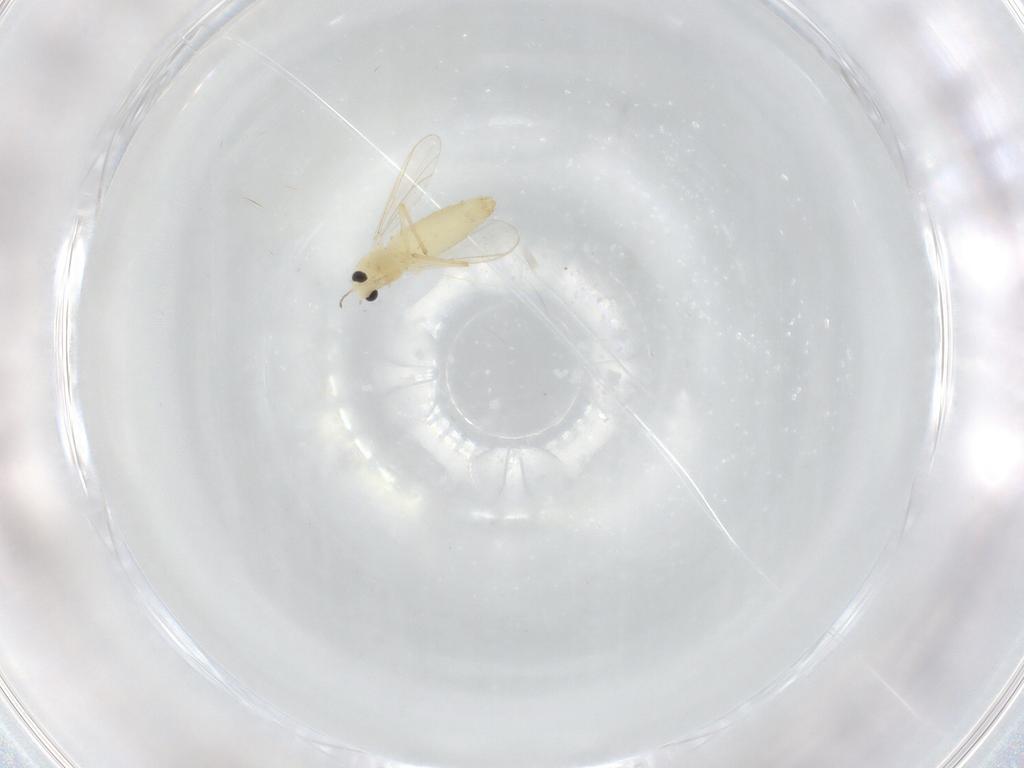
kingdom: Animalia
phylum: Arthropoda
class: Insecta
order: Diptera
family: Chironomidae
